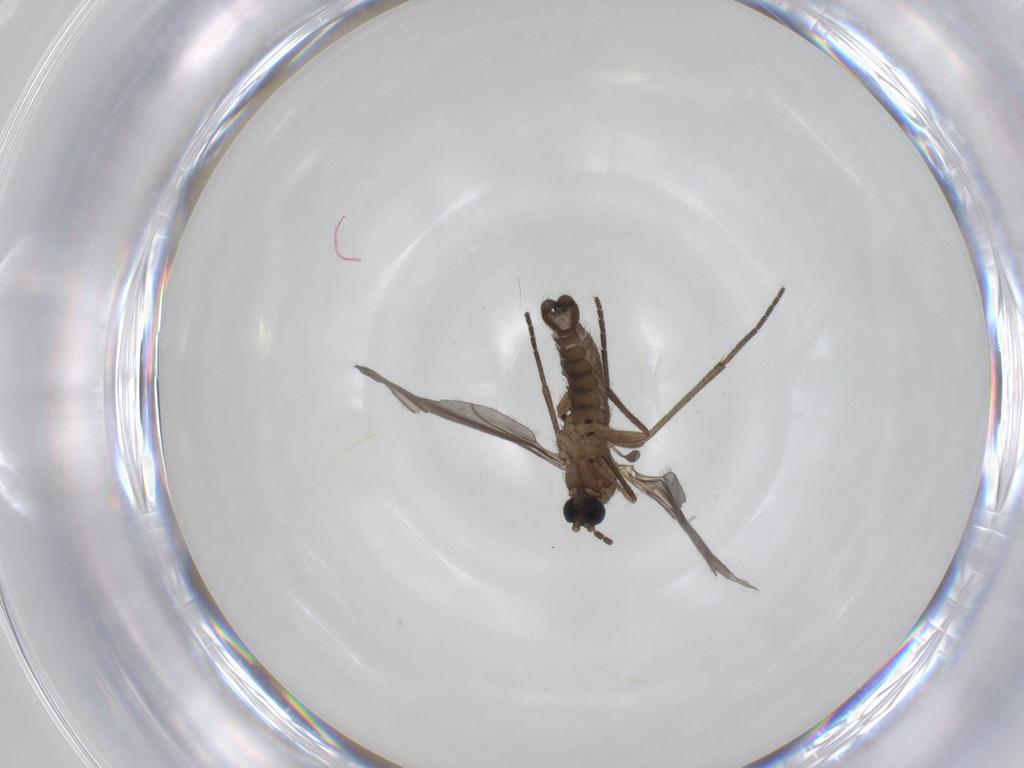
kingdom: Animalia
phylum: Arthropoda
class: Insecta
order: Diptera
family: Sciaridae
